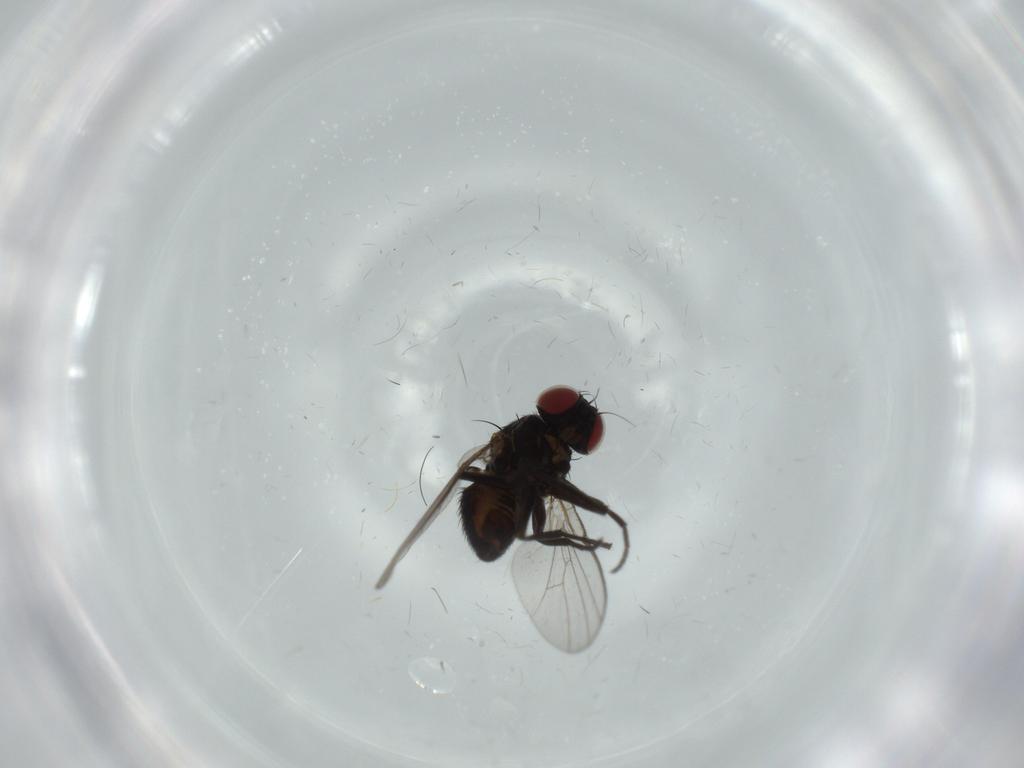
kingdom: Animalia
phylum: Arthropoda
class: Insecta
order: Diptera
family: Agromyzidae
